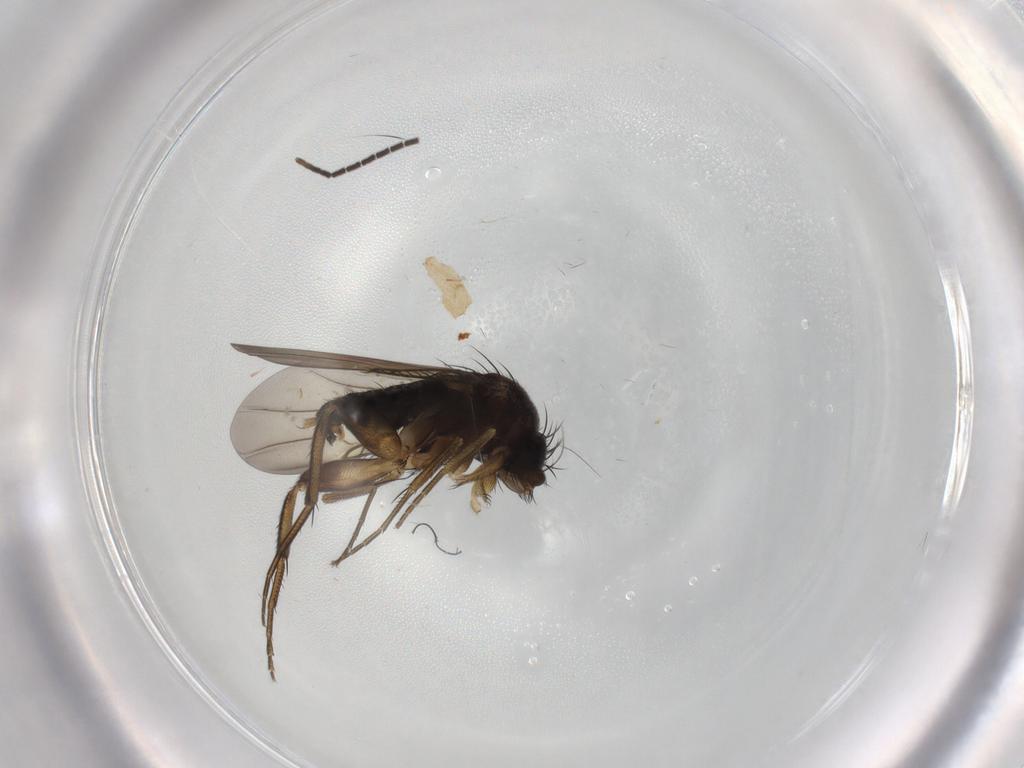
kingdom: Animalia
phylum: Arthropoda
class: Insecta
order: Diptera
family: Phoridae
